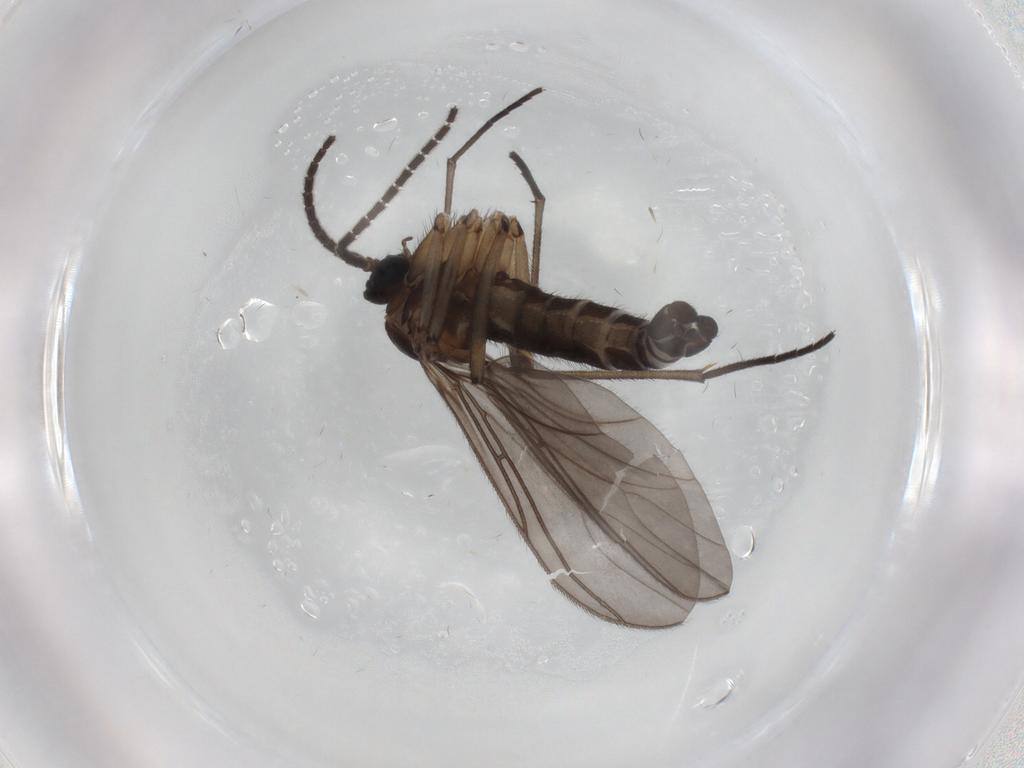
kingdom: Animalia
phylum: Arthropoda
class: Insecta
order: Diptera
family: Sciaridae
